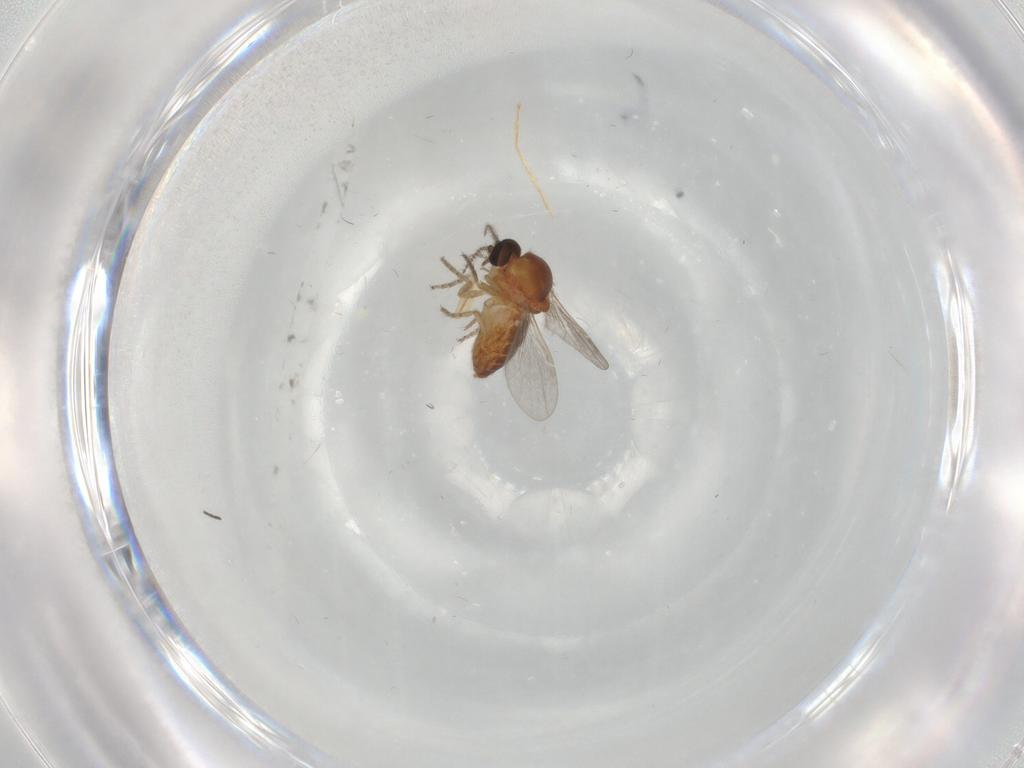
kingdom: Animalia
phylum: Arthropoda
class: Insecta
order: Diptera
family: Ceratopogonidae
